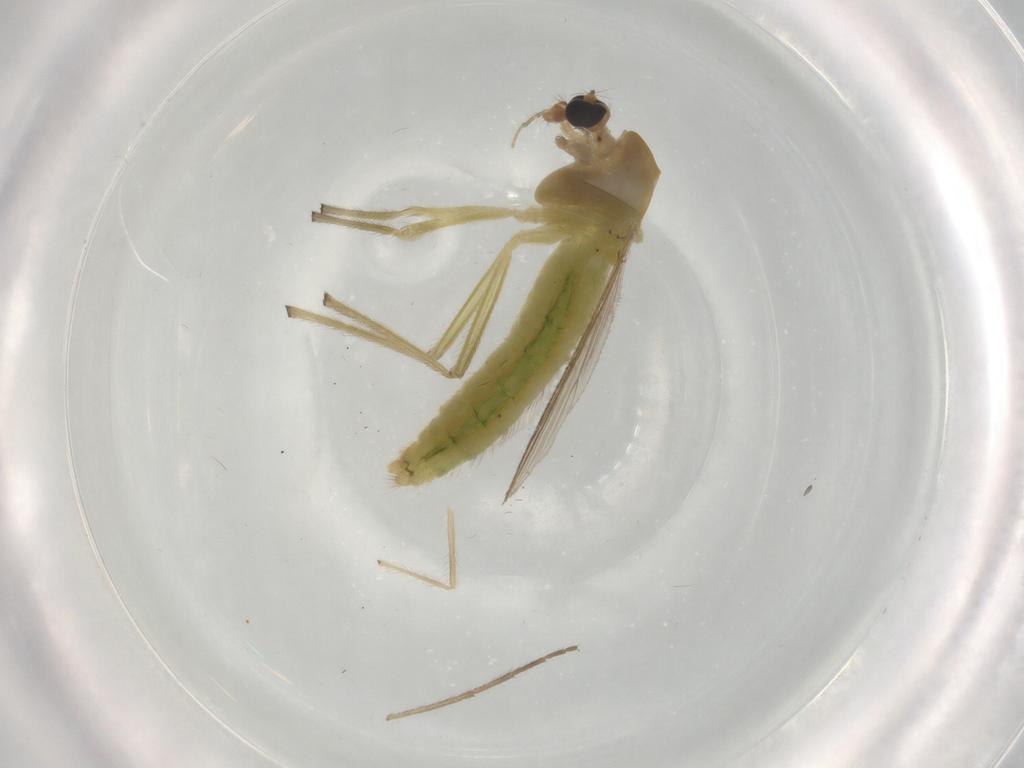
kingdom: Animalia
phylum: Arthropoda
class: Insecta
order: Diptera
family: Chironomidae
